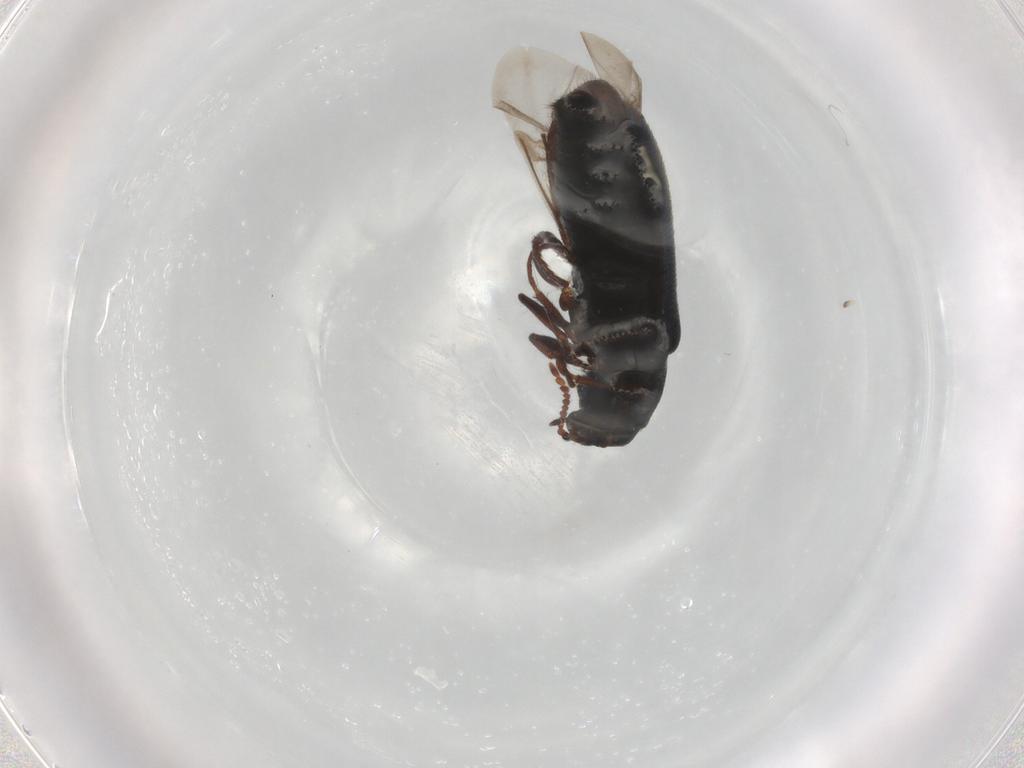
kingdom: Animalia
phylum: Arthropoda
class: Insecta
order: Coleoptera
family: Melyridae
